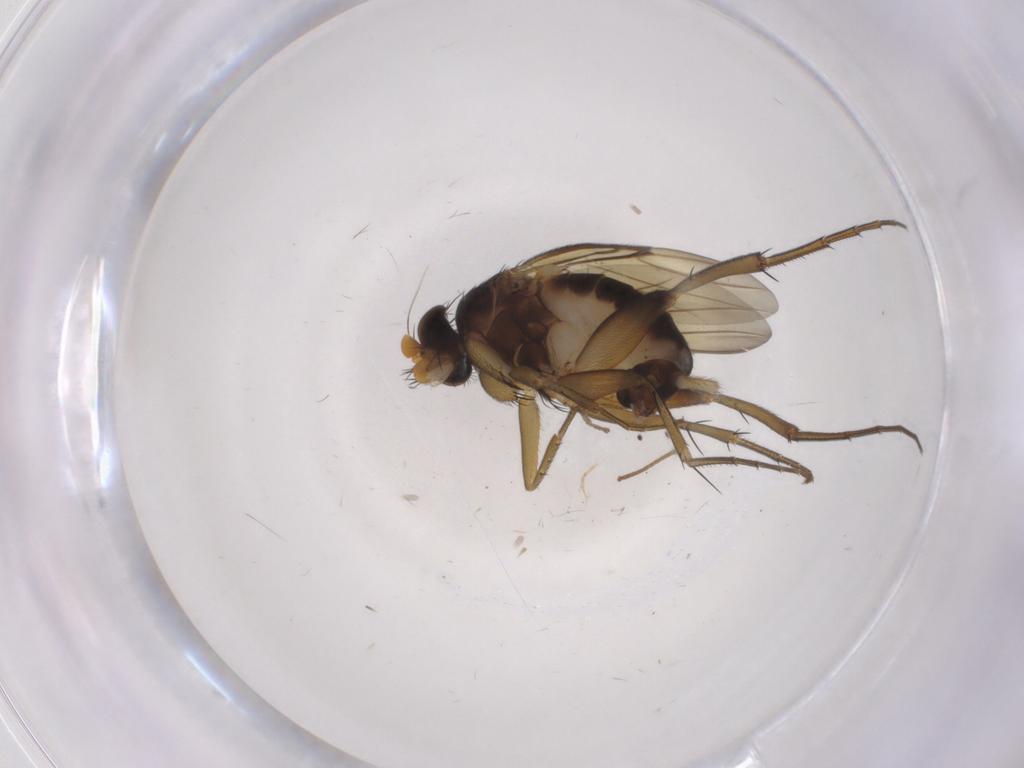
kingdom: Animalia
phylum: Arthropoda
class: Insecta
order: Diptera
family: Phoridae
